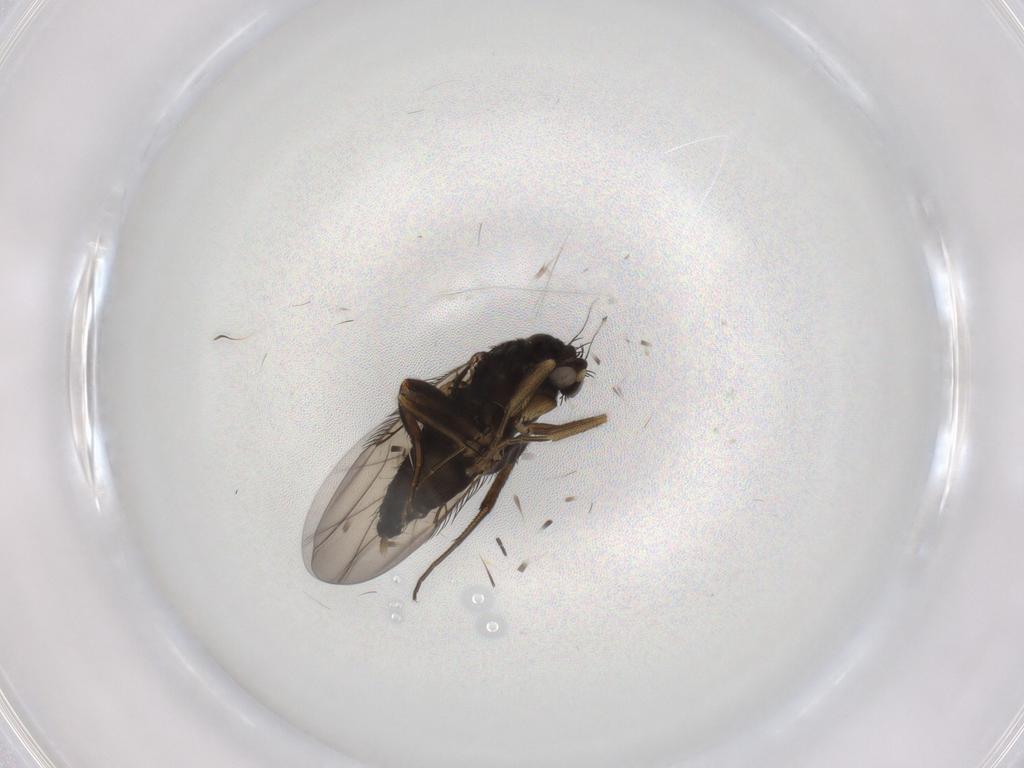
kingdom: Animalia
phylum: Arthropoda
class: Insecta
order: Diptera
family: Phoridae
